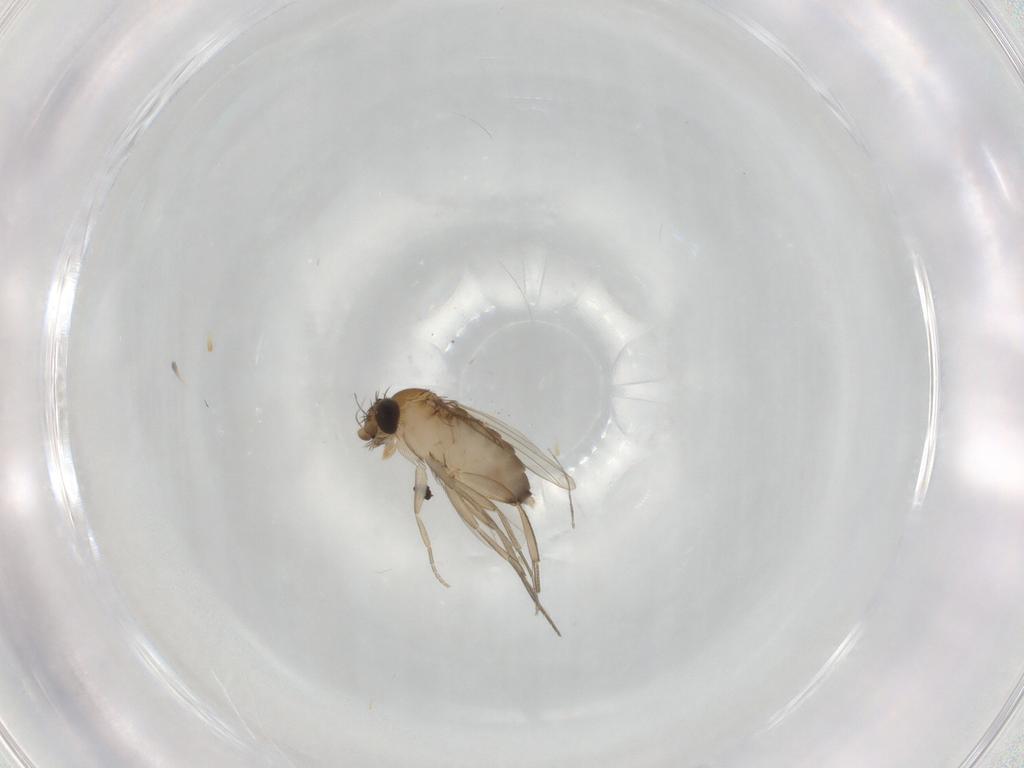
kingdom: Animalia
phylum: Arthropoda
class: Insecta
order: Diptera
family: Phoridae
